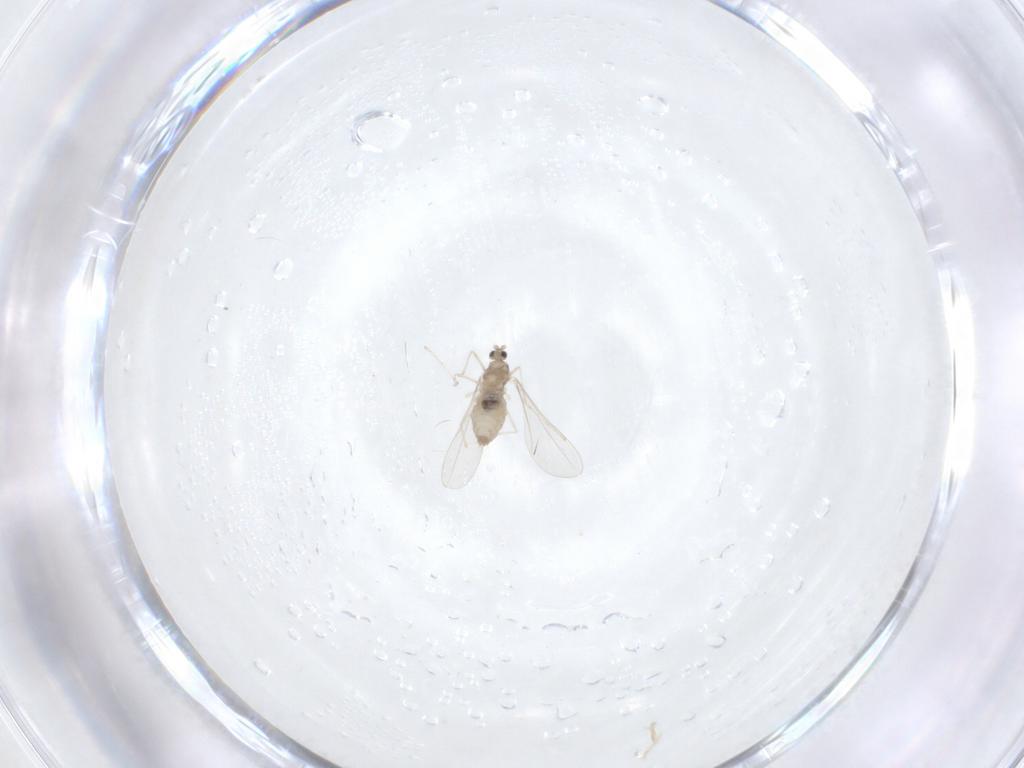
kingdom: Animalia
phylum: Arthropoda
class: Insecta
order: Diptera
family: Cecidomyiidae
